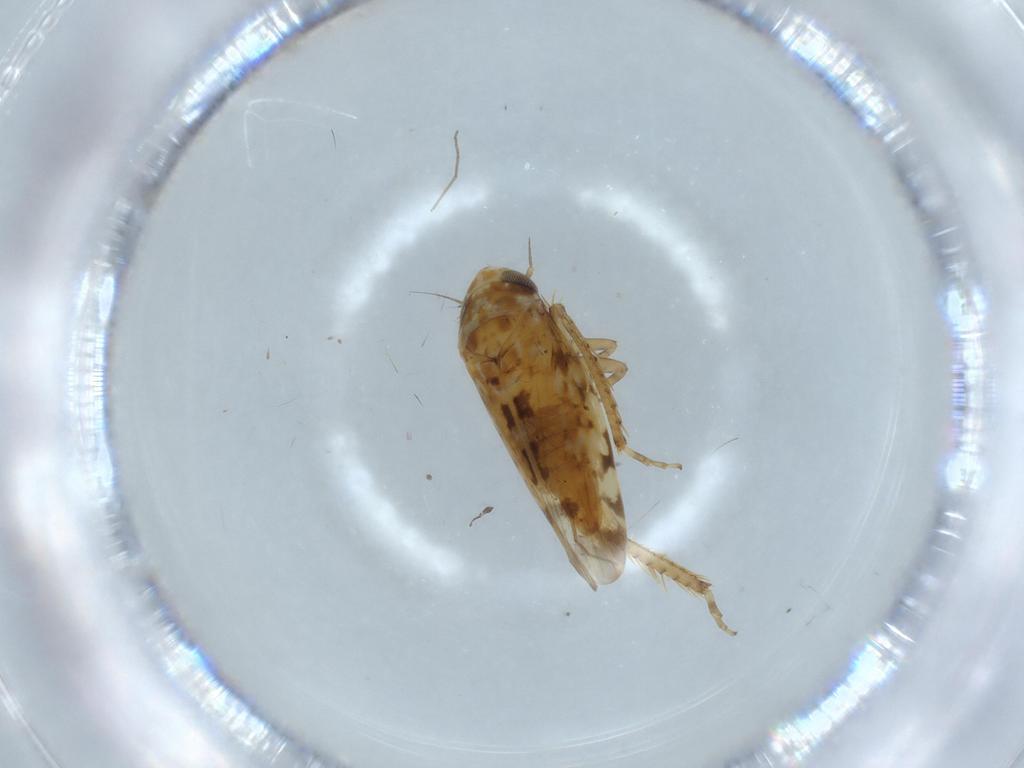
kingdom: Animalia
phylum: Arthropoda
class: Insecta
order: Hemiptera
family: Cicadellidae
